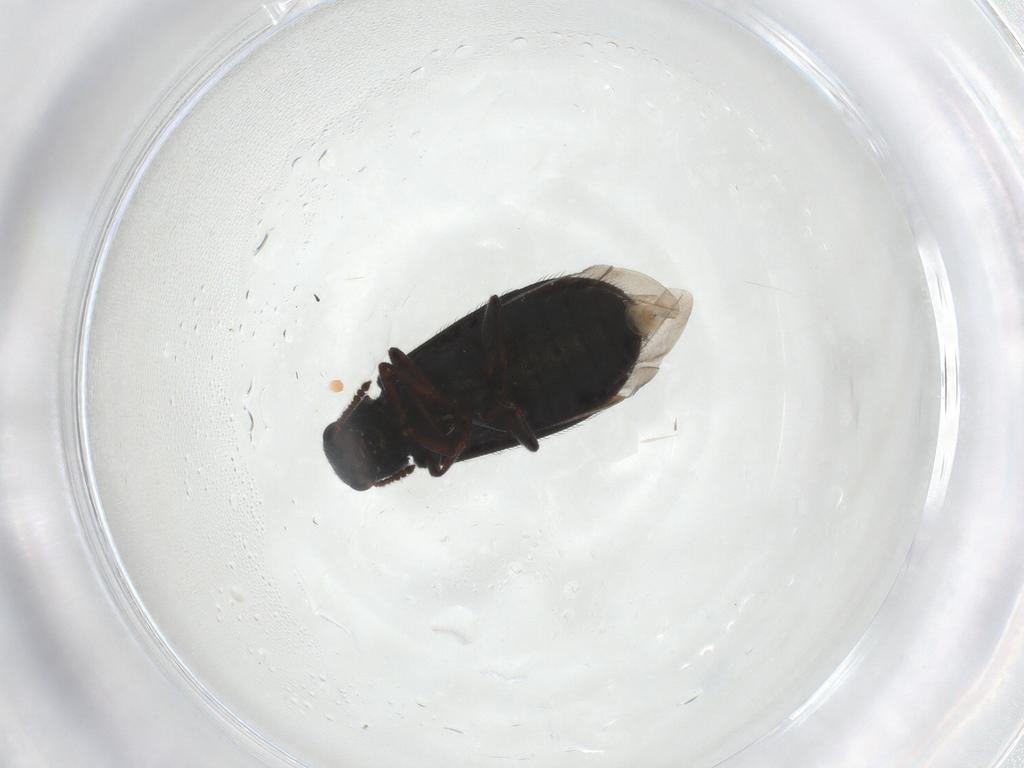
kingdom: Animalia
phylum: Arthropoda
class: Insecta
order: Coleoptera
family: Melyridae
